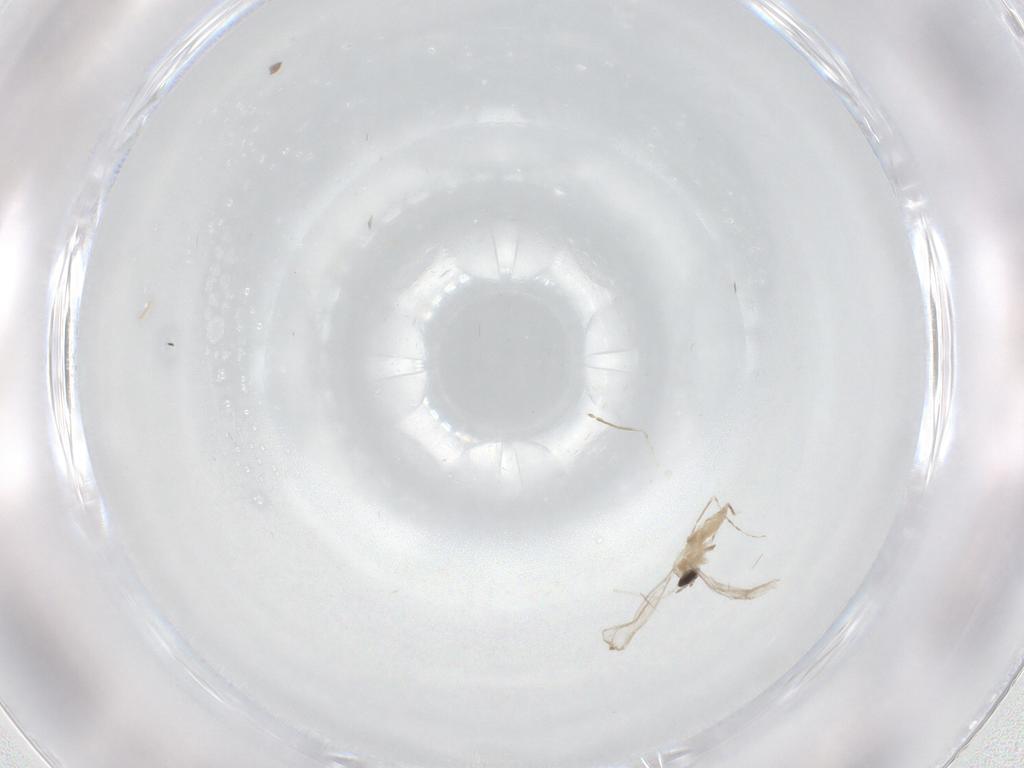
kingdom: Animalia
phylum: Arthropoda
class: Insecta
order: Diptera
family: Cecidomyiidae
